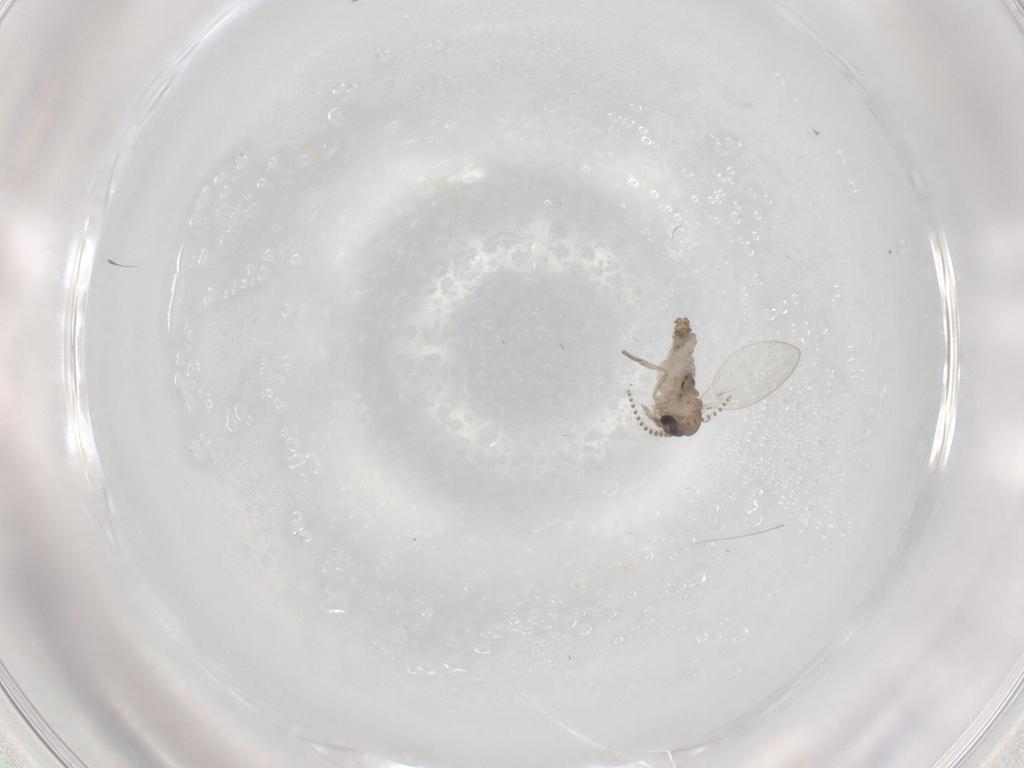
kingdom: Animalia
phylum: Arthropoda
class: Insecta
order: Diptera
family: Psychodidae
